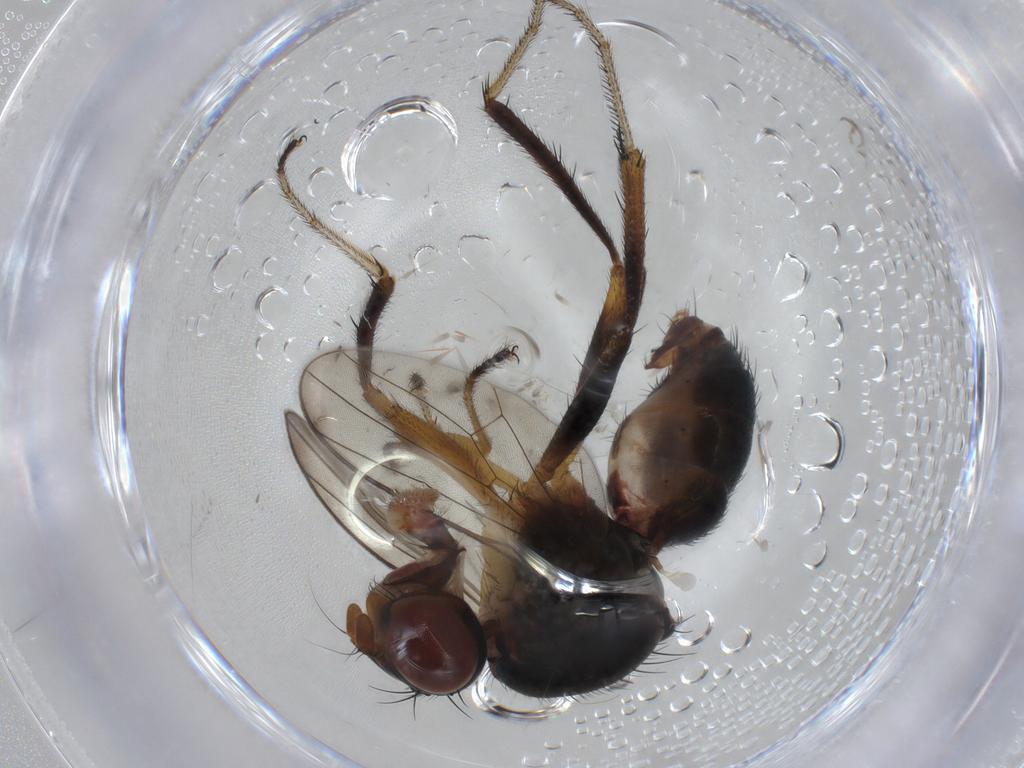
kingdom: Animalia
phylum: Arthropoda
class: Insecta
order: Diptera
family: Sepsidae
